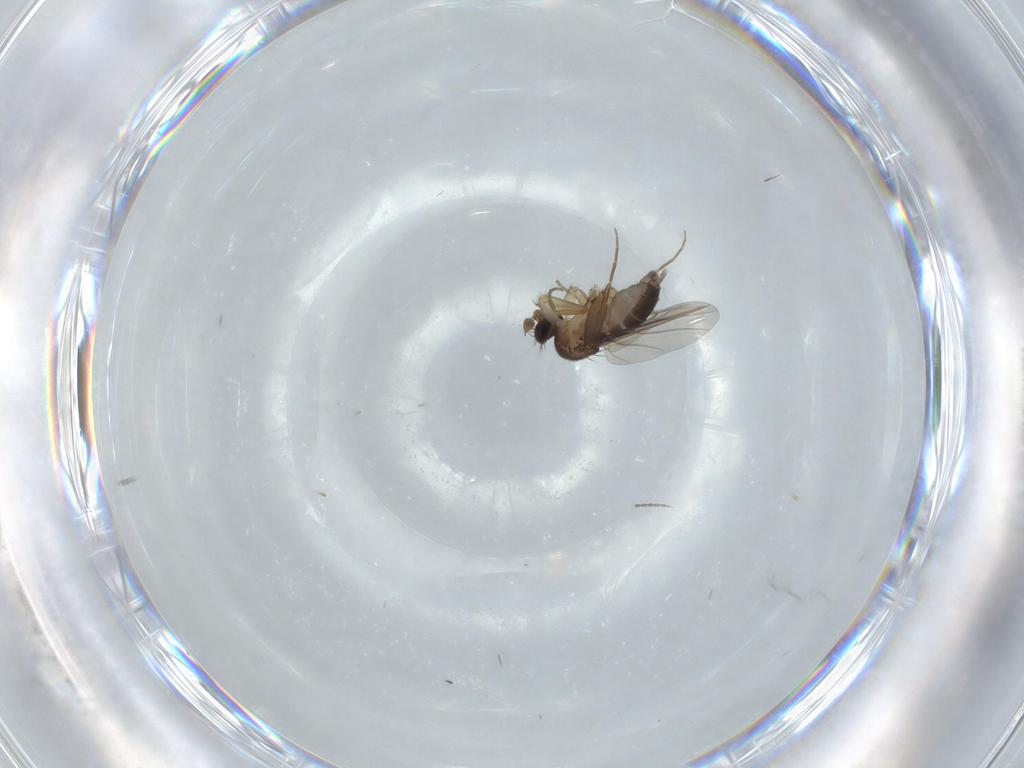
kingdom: Animalia
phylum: Arthropoda
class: Insecta
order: Diptera
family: Phoridae
